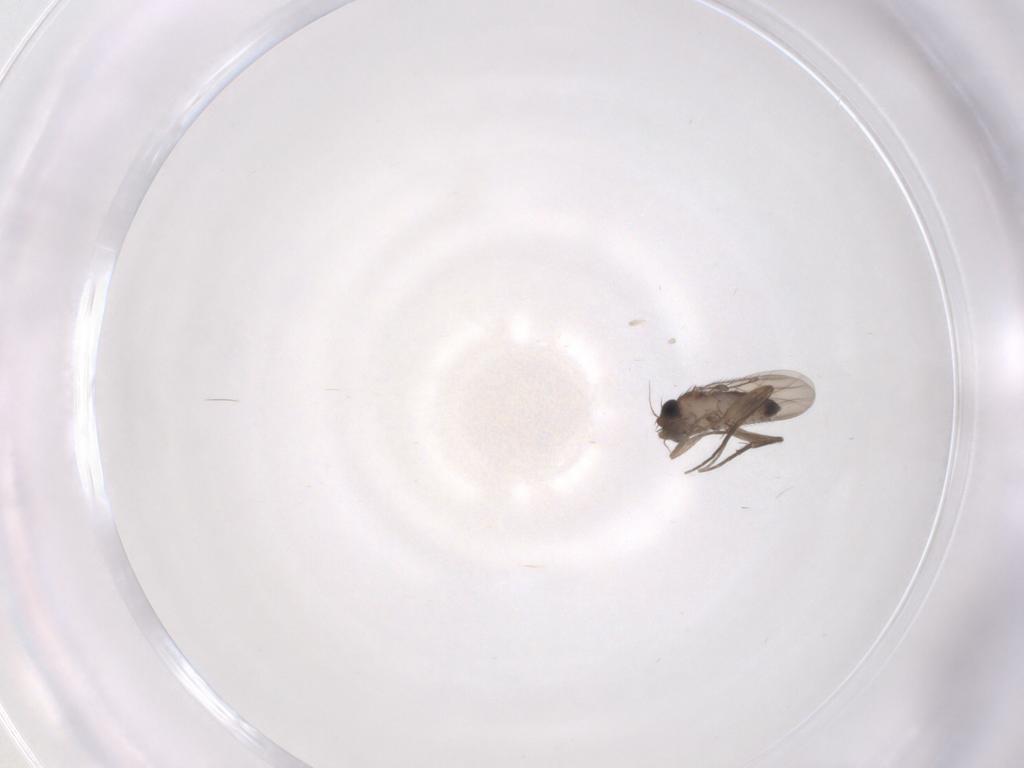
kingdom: Animalia
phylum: Arthropoda
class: Insecta
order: Diptera
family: Phoridae
